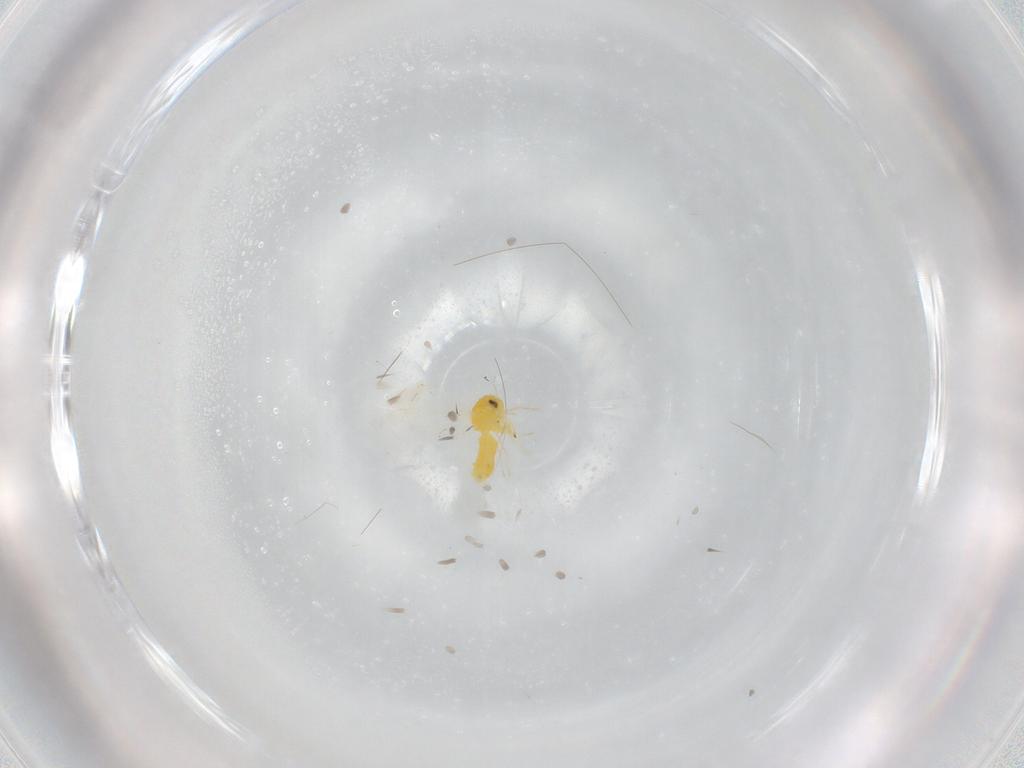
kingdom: Animalia
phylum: Arthropoda
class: Insecta
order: Hemiptera
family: Aleyrodidae
